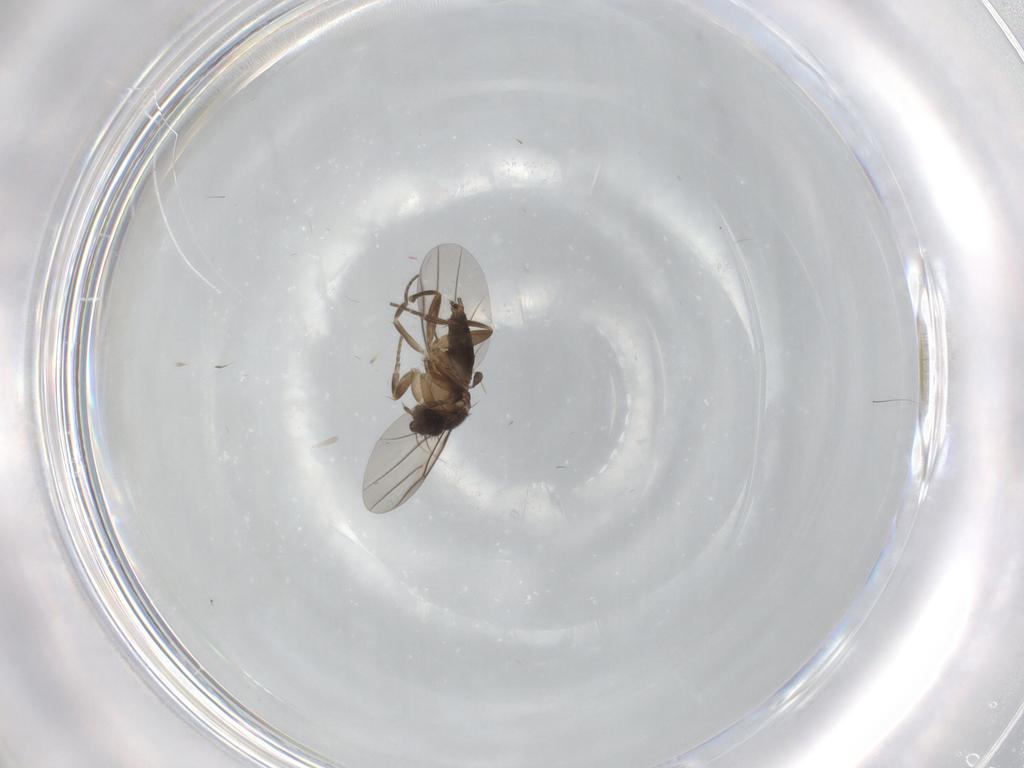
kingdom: Animalia
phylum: Arthropoda
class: Insecta
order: Diptera
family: Phoridae
